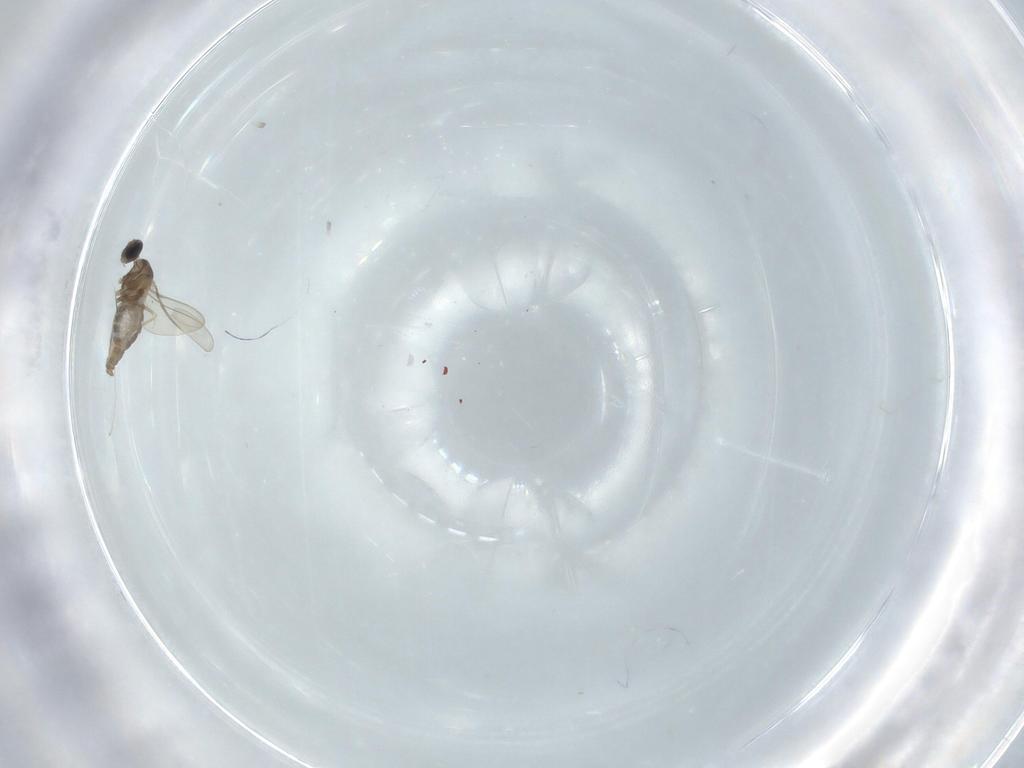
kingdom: Animalia
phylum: Arthropoda
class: Insecta
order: Diptera
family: Cecidomyiidae
